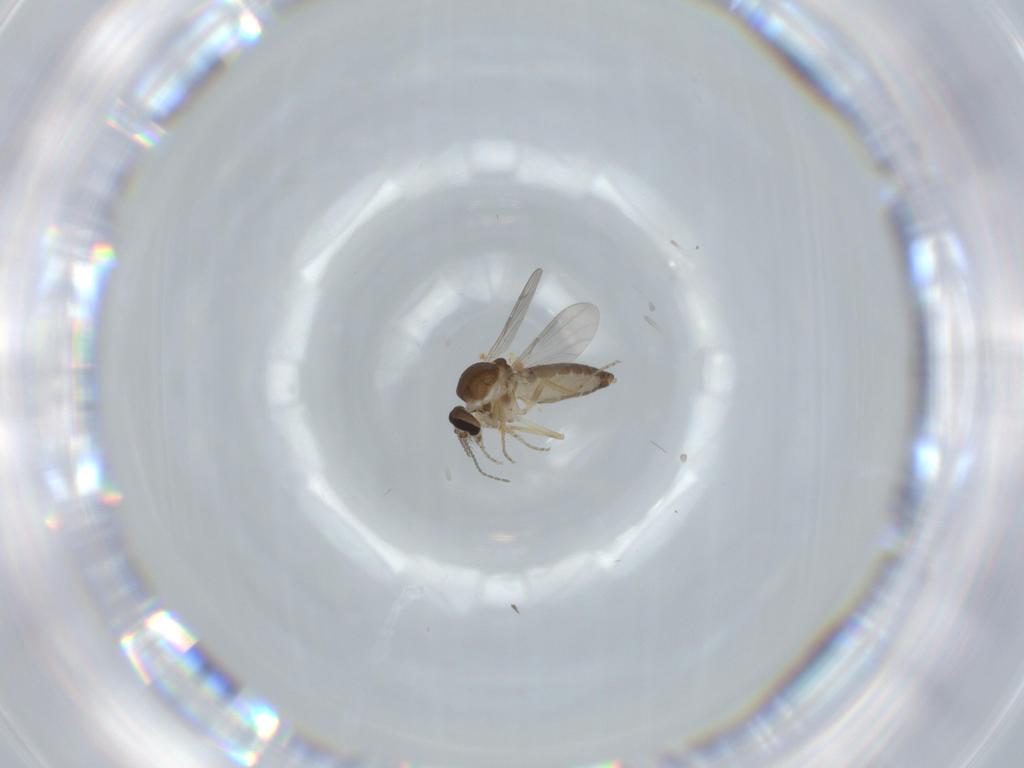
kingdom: Animalia
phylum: Arthropoda
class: Insecta
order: Diptera
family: Ceratopogonidae
